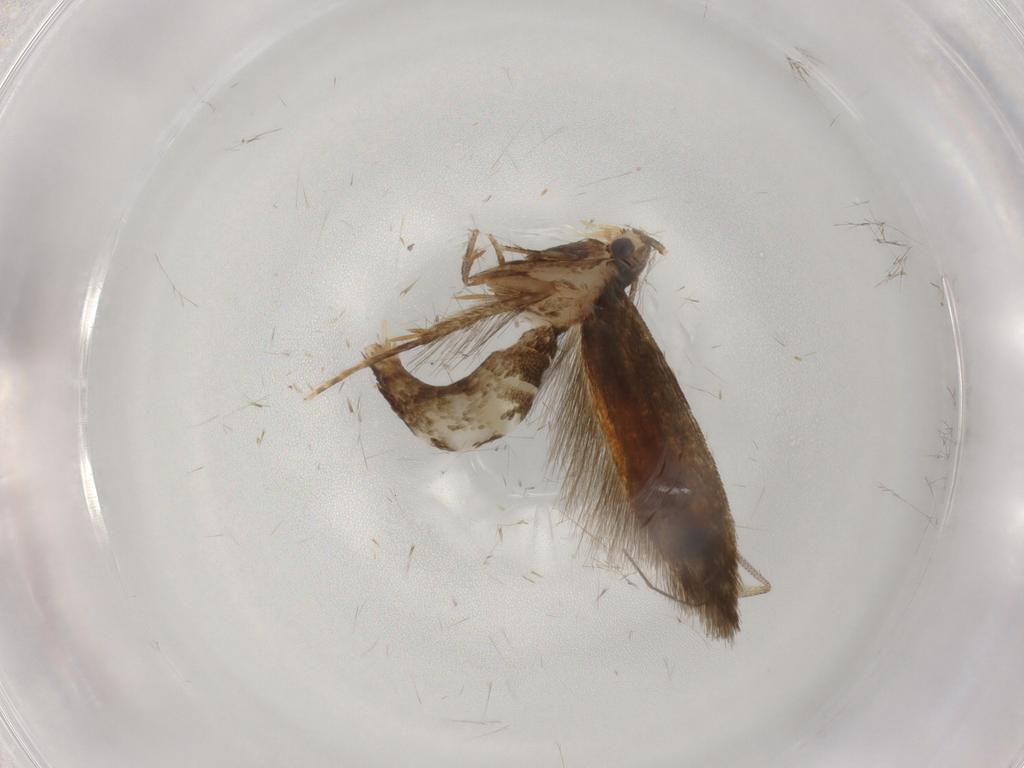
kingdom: Animalia
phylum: Arthropoda
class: Insecta
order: Lepidoptera
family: Tineidae
